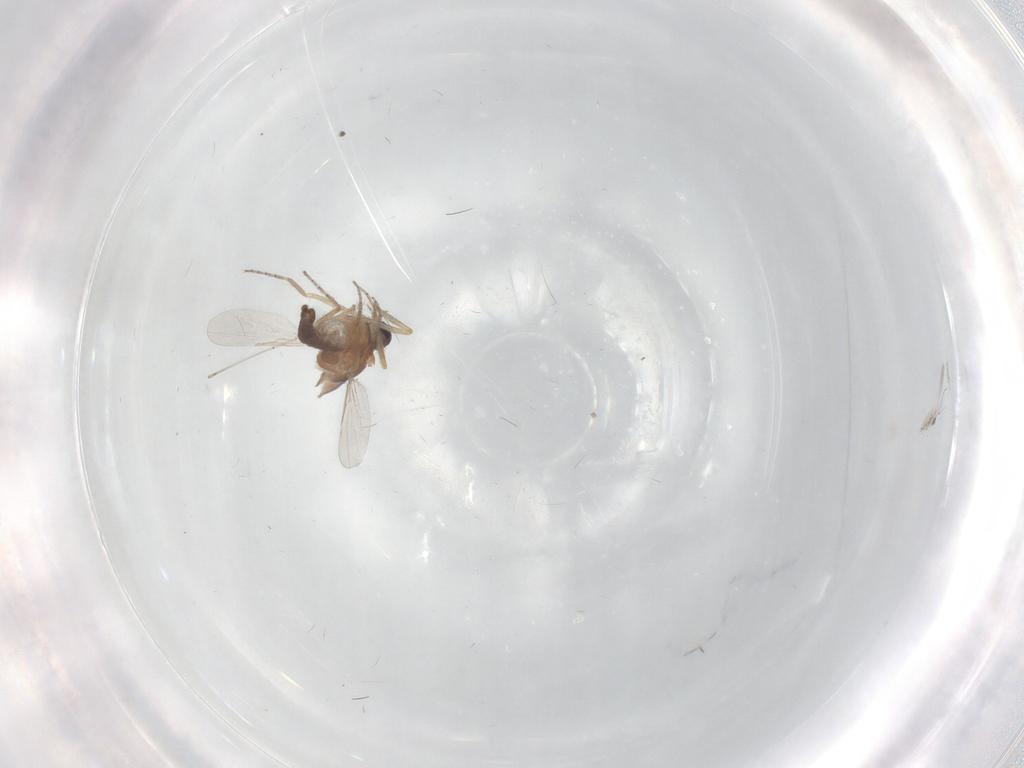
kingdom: Animalia
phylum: Arthropoda
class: Insecta
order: Diptera
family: Ceratopogonidae
